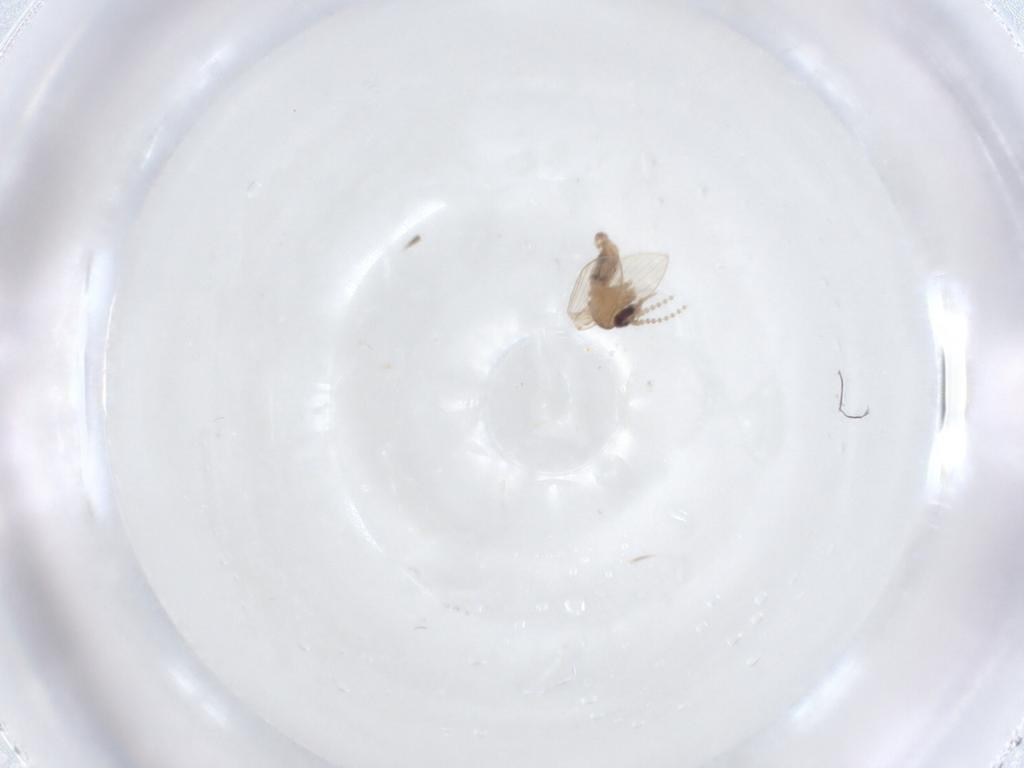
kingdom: Animalia
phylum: Arthropoda
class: Insecta
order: Diptera
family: Psychodidae
